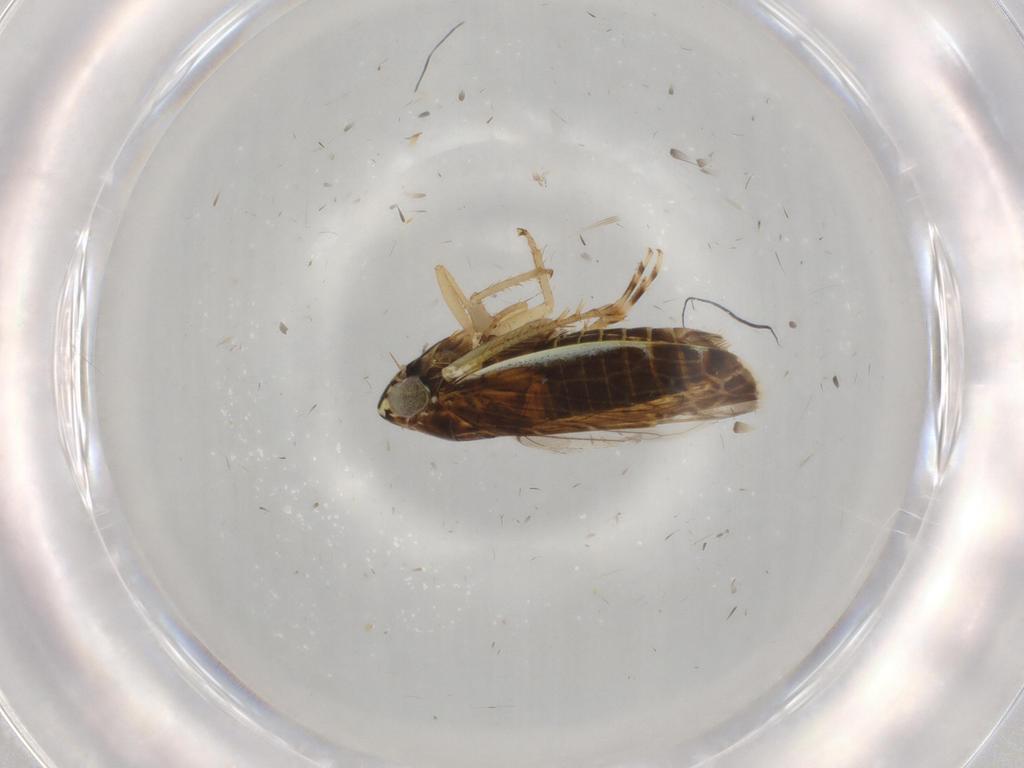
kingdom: Animalia
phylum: Arthropoda
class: Insecta
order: Hemiptera
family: Cicadellidae
